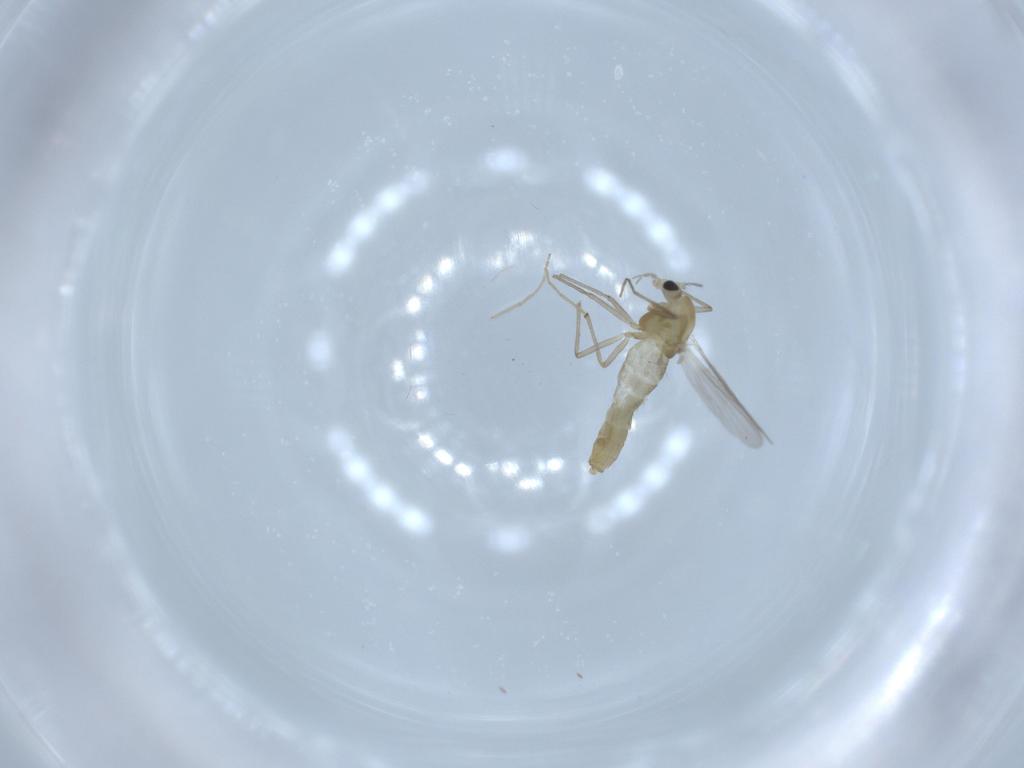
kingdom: Animalia
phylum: Arthropoda
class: Insecta
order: Diptera
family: Chironomidae
